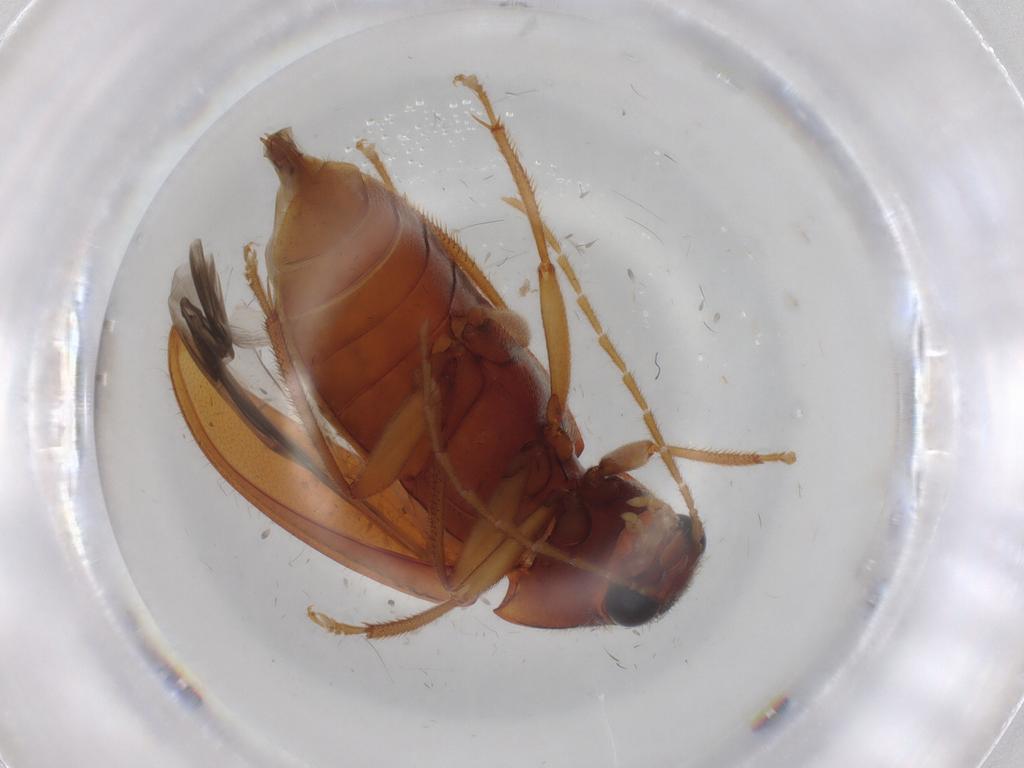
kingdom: Animalia
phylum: Arthropoda
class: Insecta
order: Coleoptera
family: Ptilodactylidae
